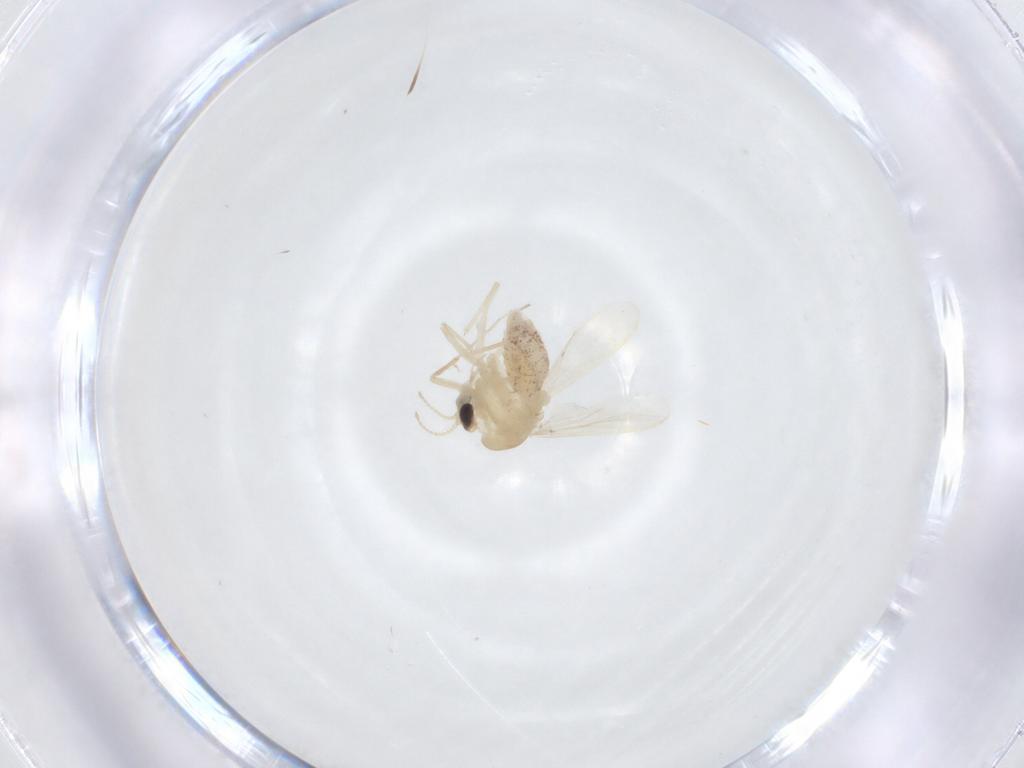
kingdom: Animalia
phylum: Arthropoda
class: Insecta
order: Diptera
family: Chironomidae
